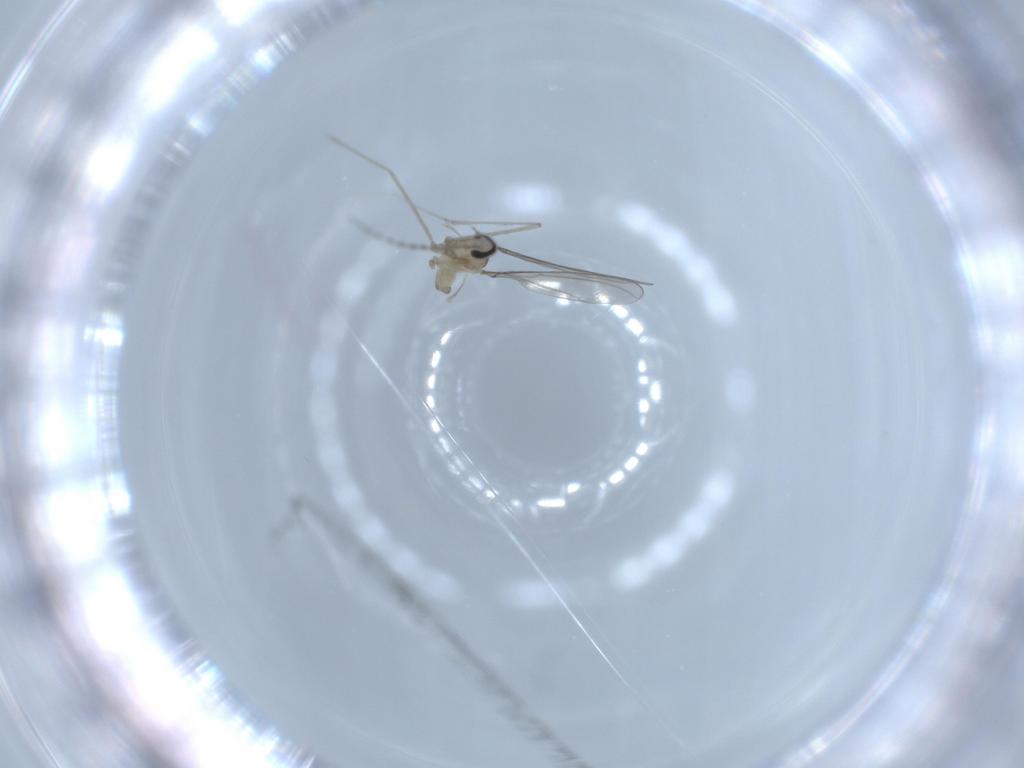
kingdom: Animalia
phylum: Arthropoda
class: Insecta
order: Diptera
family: Cecidomyiidae
